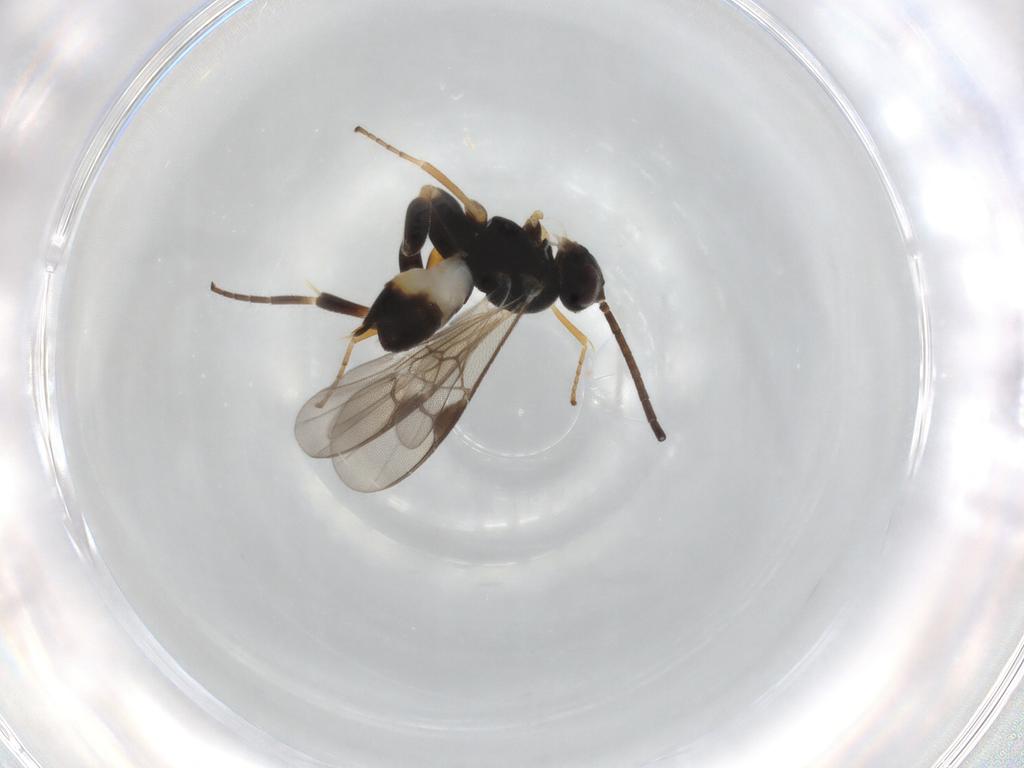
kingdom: Animalia
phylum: Arthropoda
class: Insecta
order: Hymenoptera
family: Braconidae
